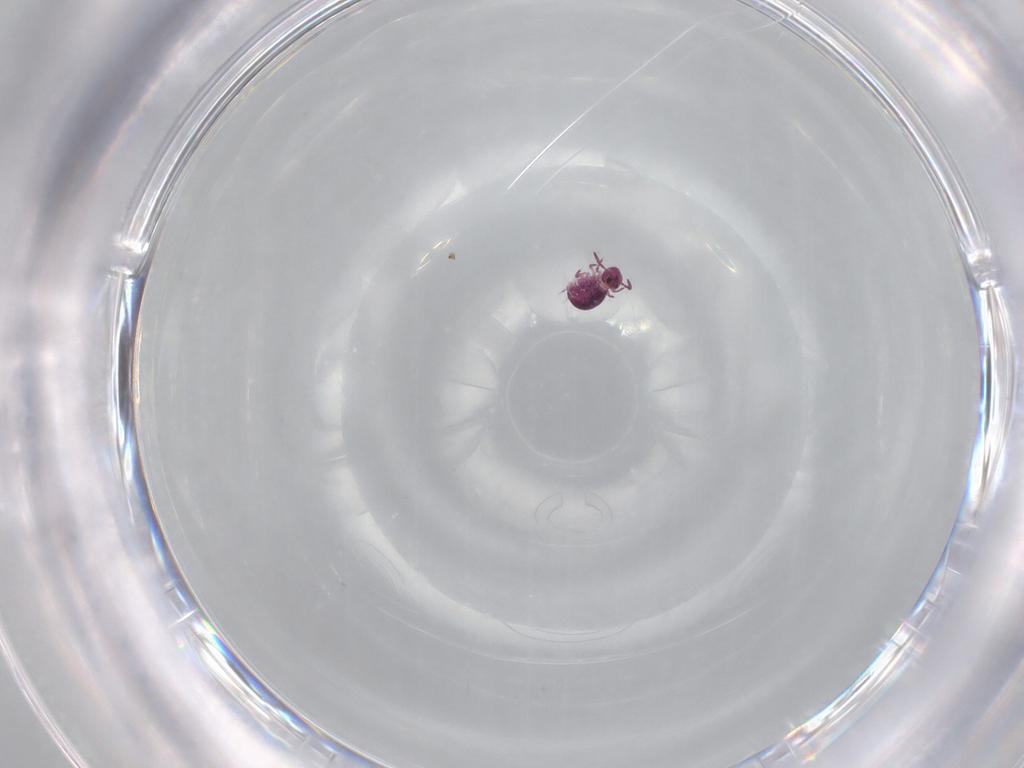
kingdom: Animalia
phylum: Arthropoda
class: Collembola
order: Symphypleona
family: Sminthurididae
